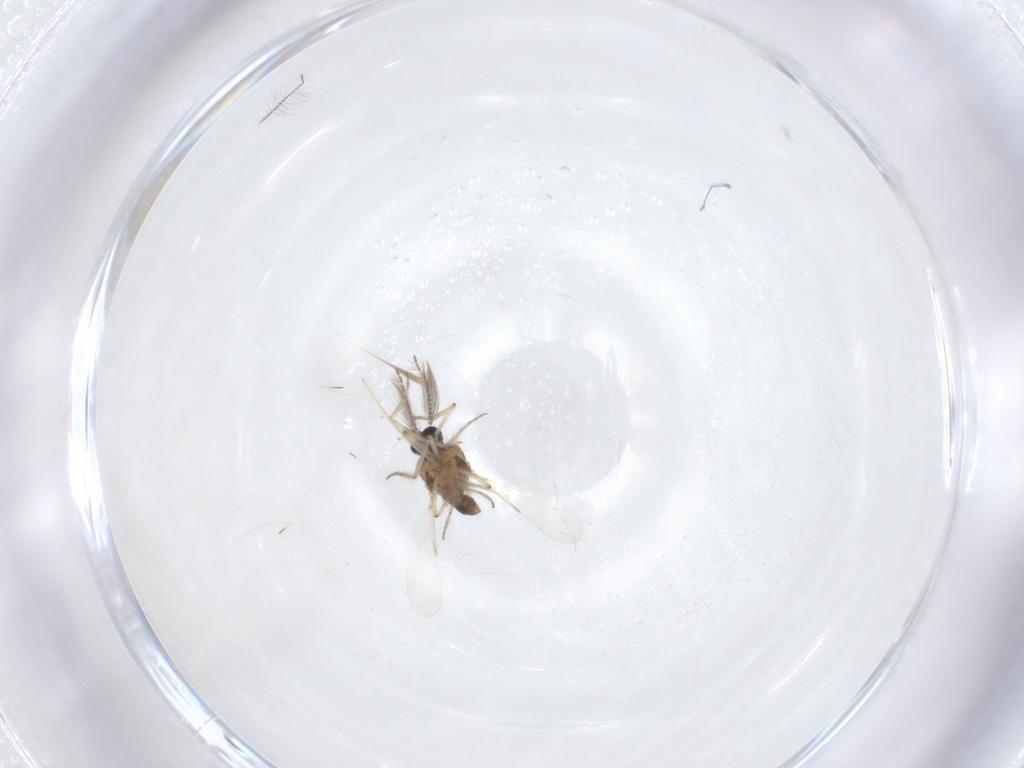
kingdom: Animalia
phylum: Arthropoda
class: Insecta
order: Diptera
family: Ceratopogonidae
